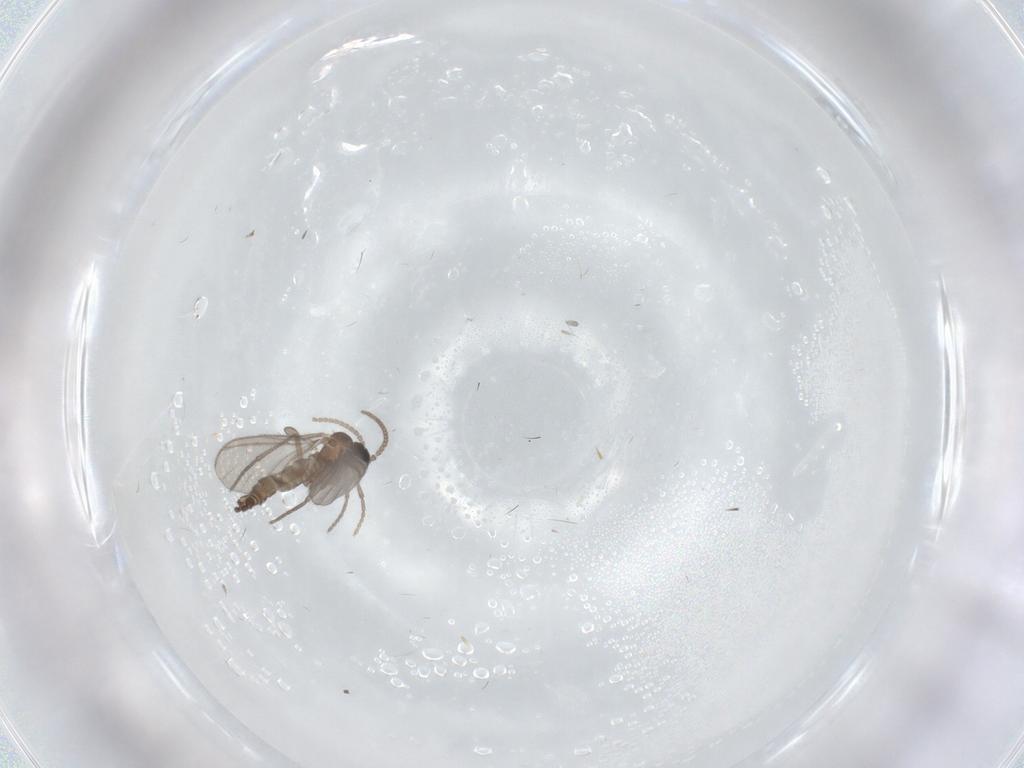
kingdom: Animalia
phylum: Arthropoda
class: Insecta
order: Diptera
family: Sciaridae
